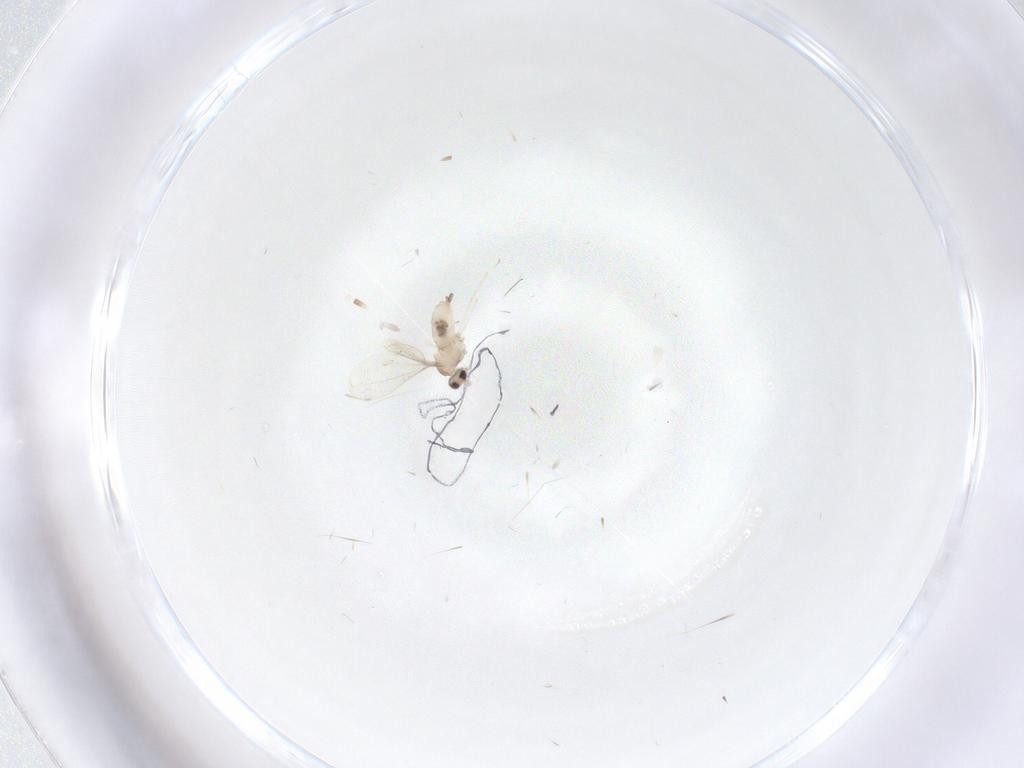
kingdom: Animalia
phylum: Arthropoda
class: Insecta
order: Diptera
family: Cecidomyiidae
